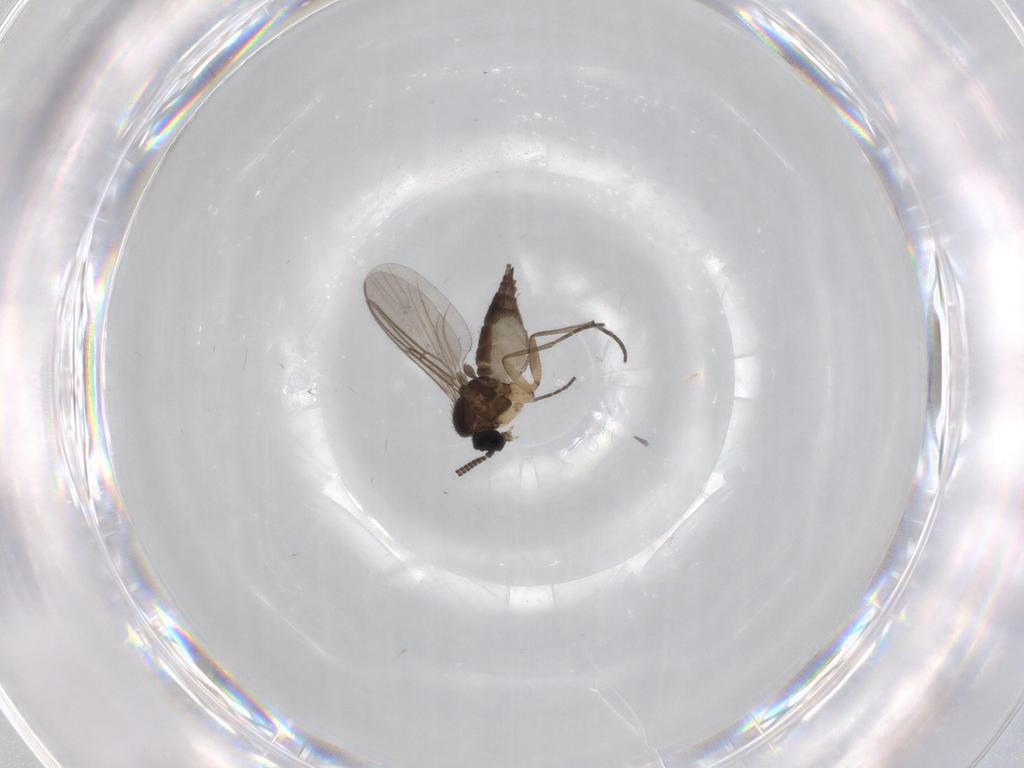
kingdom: Animalia
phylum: Arthropoda
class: Insecta
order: Diptera
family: Sciaridae
